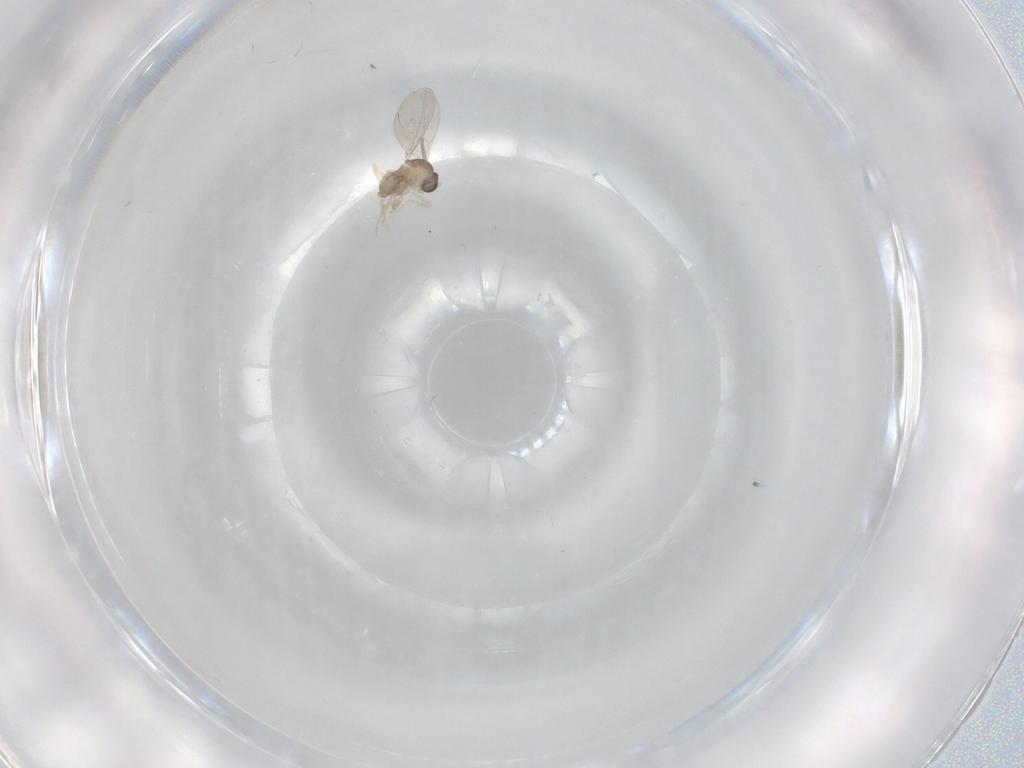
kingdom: Animalia
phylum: Arthropoda
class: Insecta
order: Diptera
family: Cecidomyiidae
